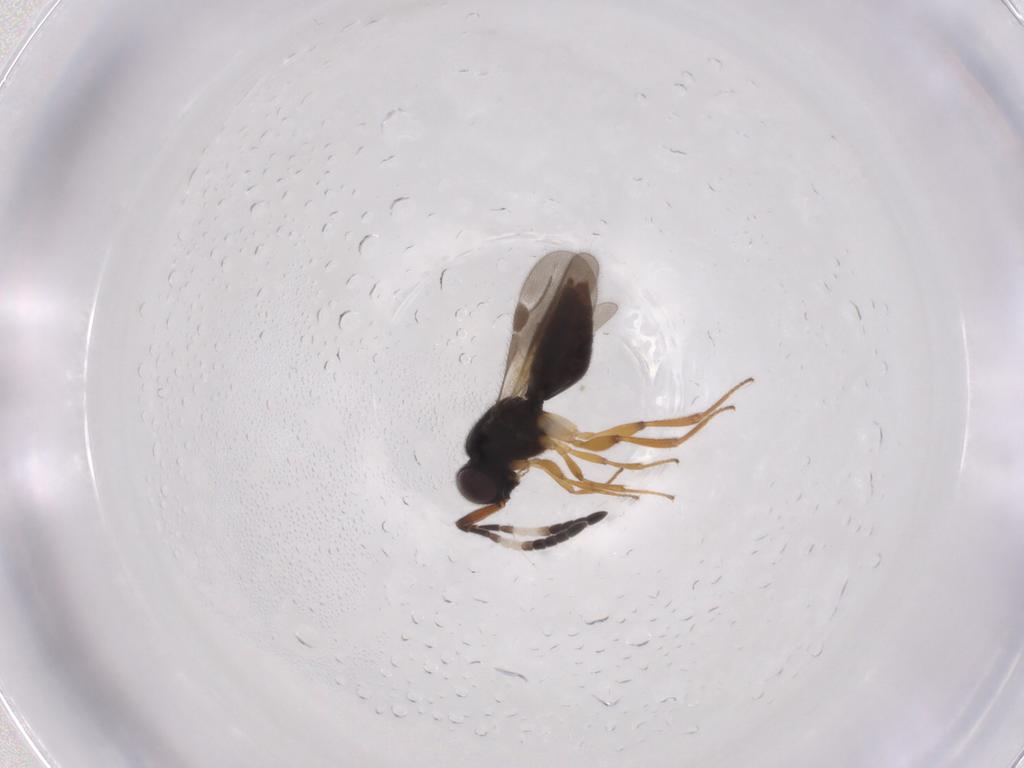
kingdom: Animalia
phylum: Arthropoda
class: Insecta
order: Hymenoptera
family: Megaspilidae
